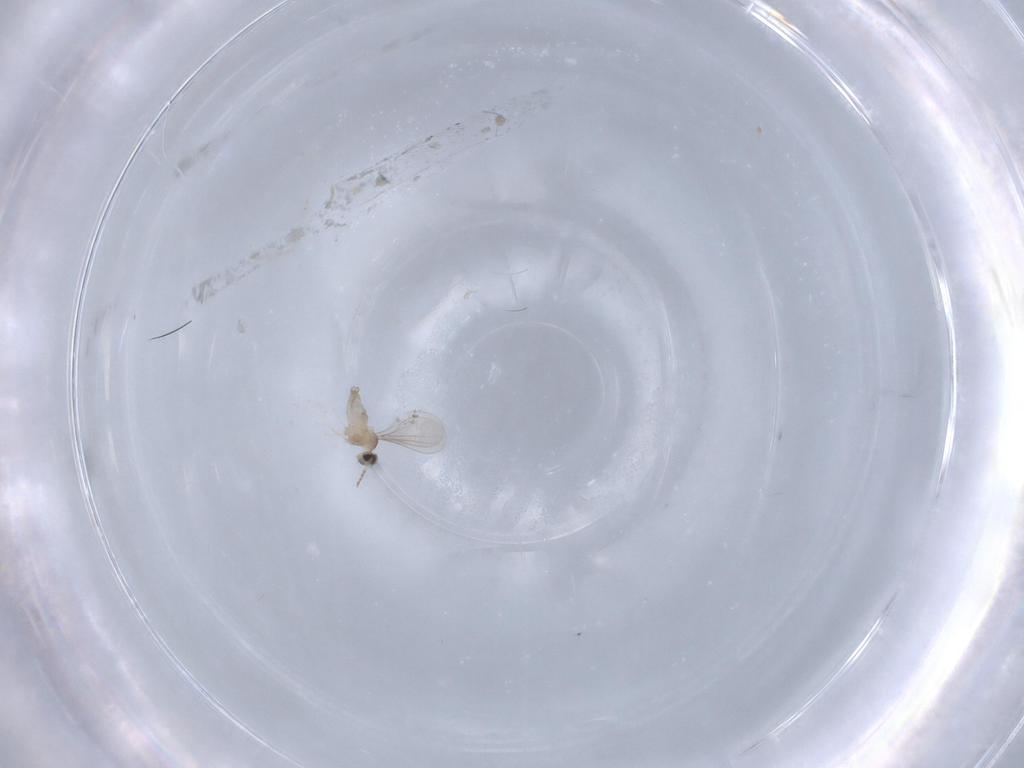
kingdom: Animalia
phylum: Arthropoda
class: Insecta
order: Diptera
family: Cecidomyiidae
